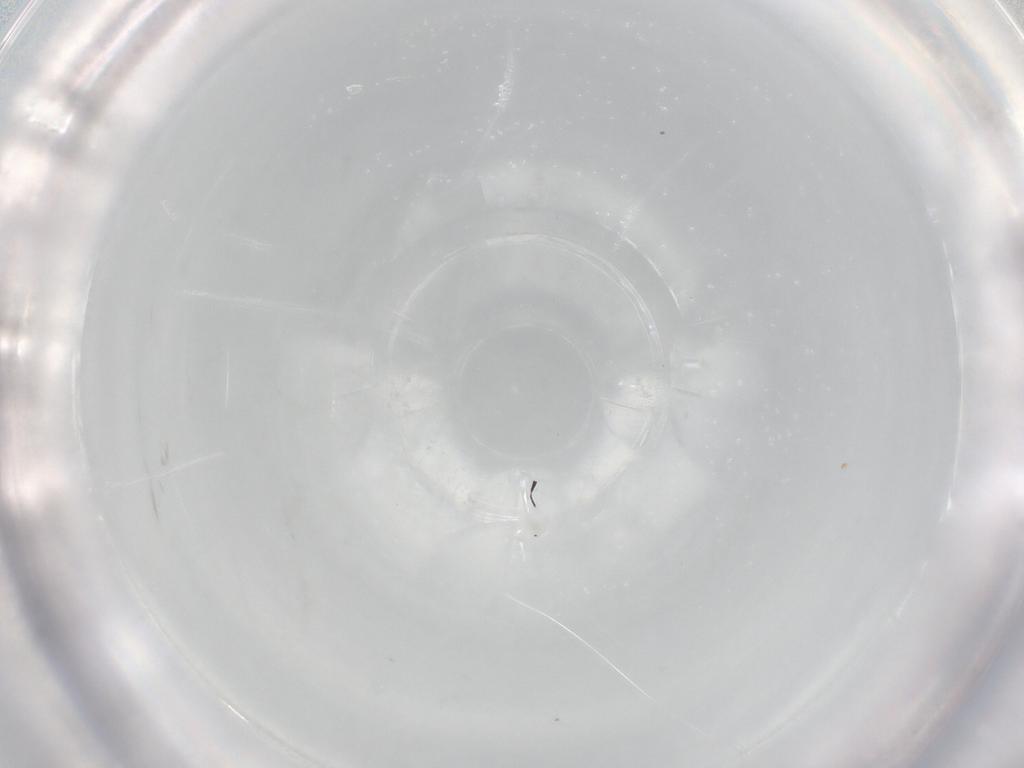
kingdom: Animalia
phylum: Arthropoda
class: Insecta
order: Diptera
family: Chironomidae
